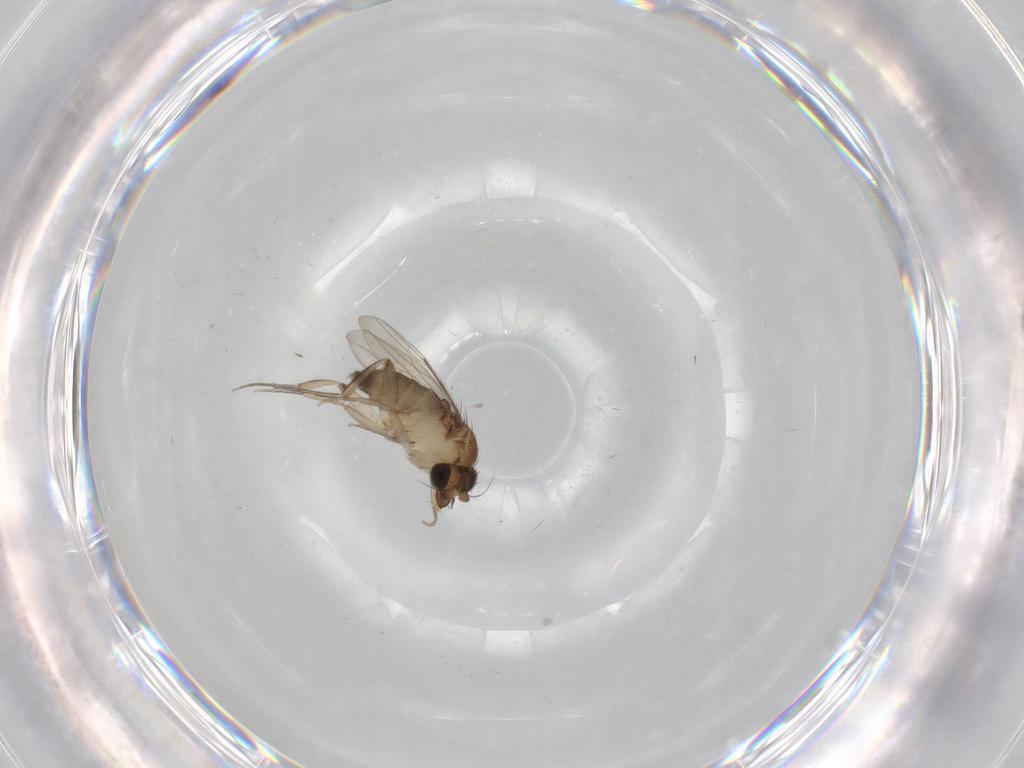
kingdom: Animalia
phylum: Arthropoda
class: Insecta
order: Diptera
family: Phoridae
